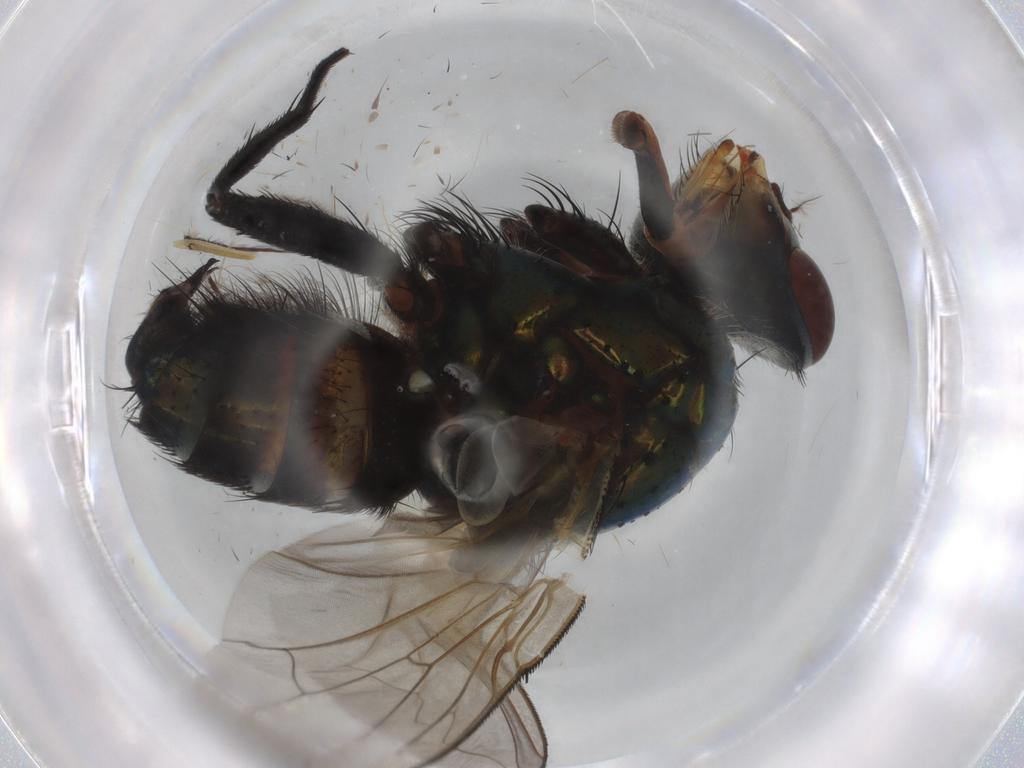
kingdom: Animalia
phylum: Arthropoda
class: Insecta
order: Diptera
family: Calliphoridae
